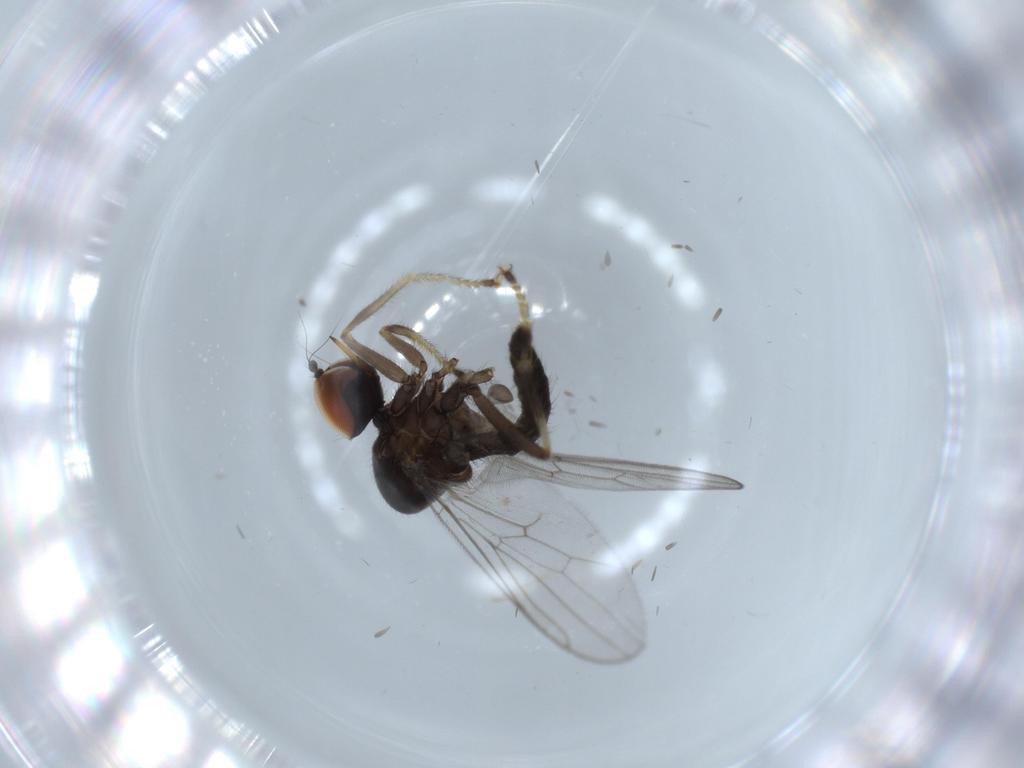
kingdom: Animalia
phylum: Arthropoda
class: Insecta
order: Diptera
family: Hybotidae
